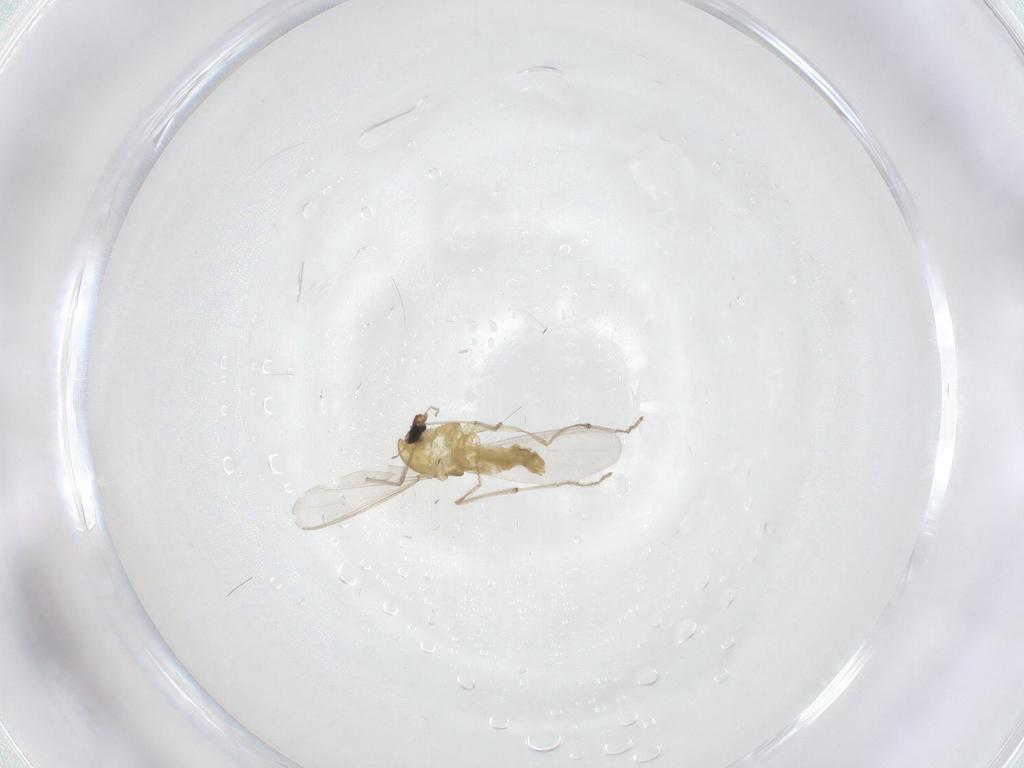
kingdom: Animalia
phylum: Arthropoda
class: Insecta
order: Diptera
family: Chironomidae
